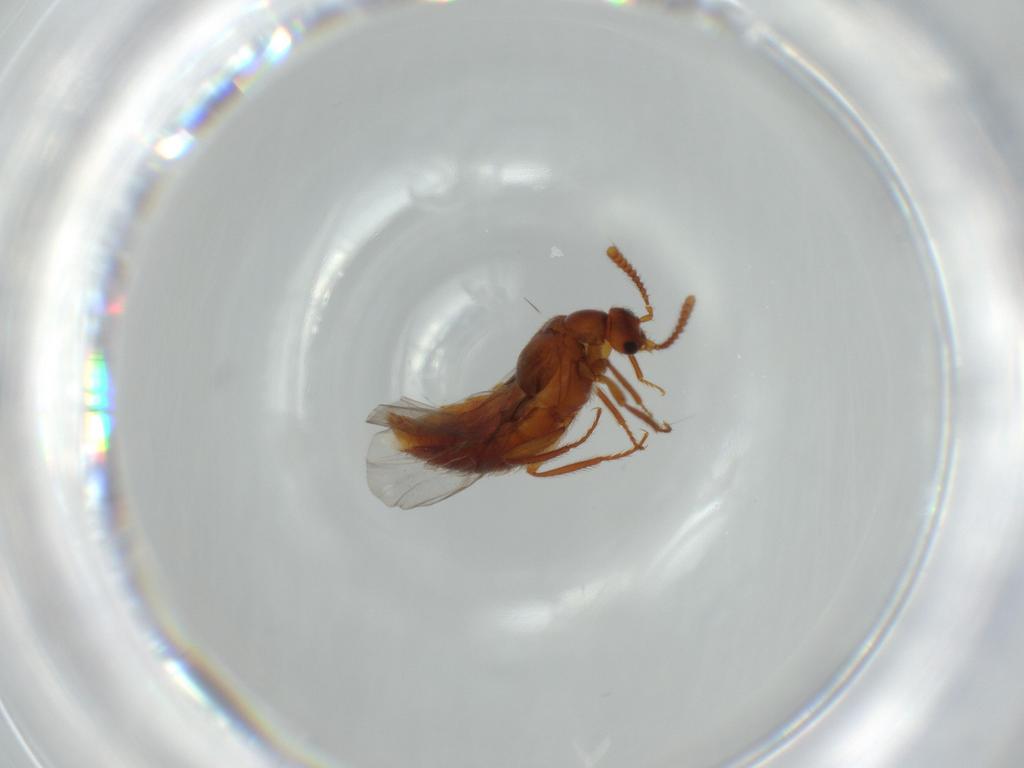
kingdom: Animalia
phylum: Arthropoda
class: Insecta
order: Coleoptera
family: Staphylinidae
